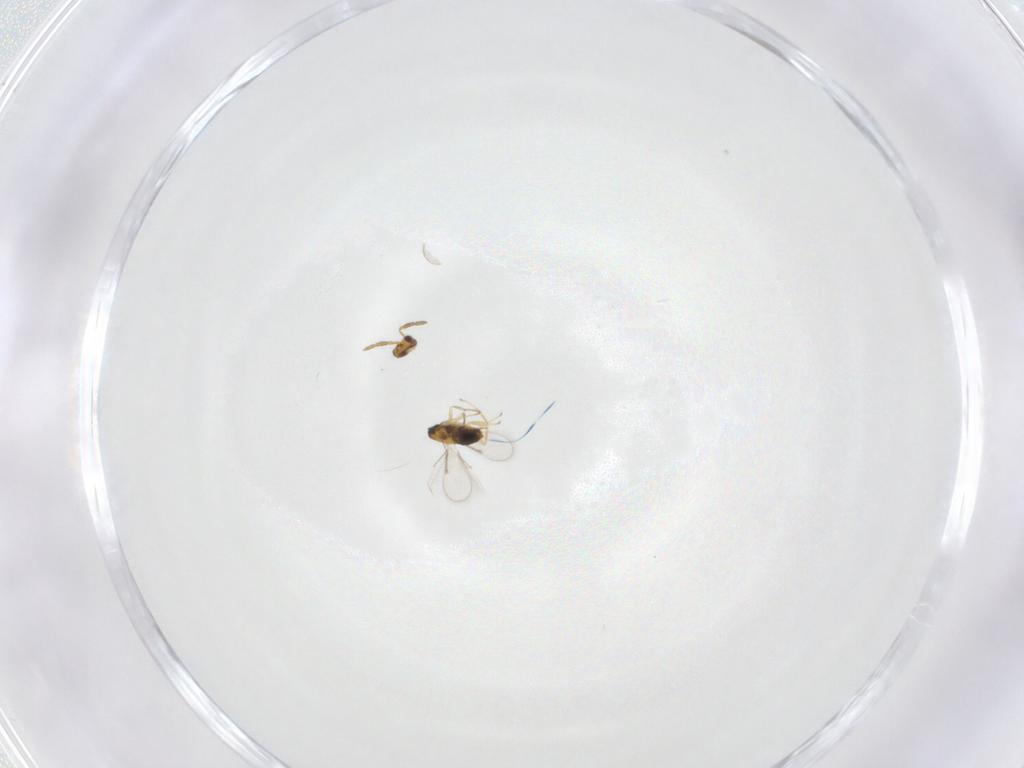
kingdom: Animalia
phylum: Arthropoda
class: Insecta
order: Hymenoptera
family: Aphelinidae
